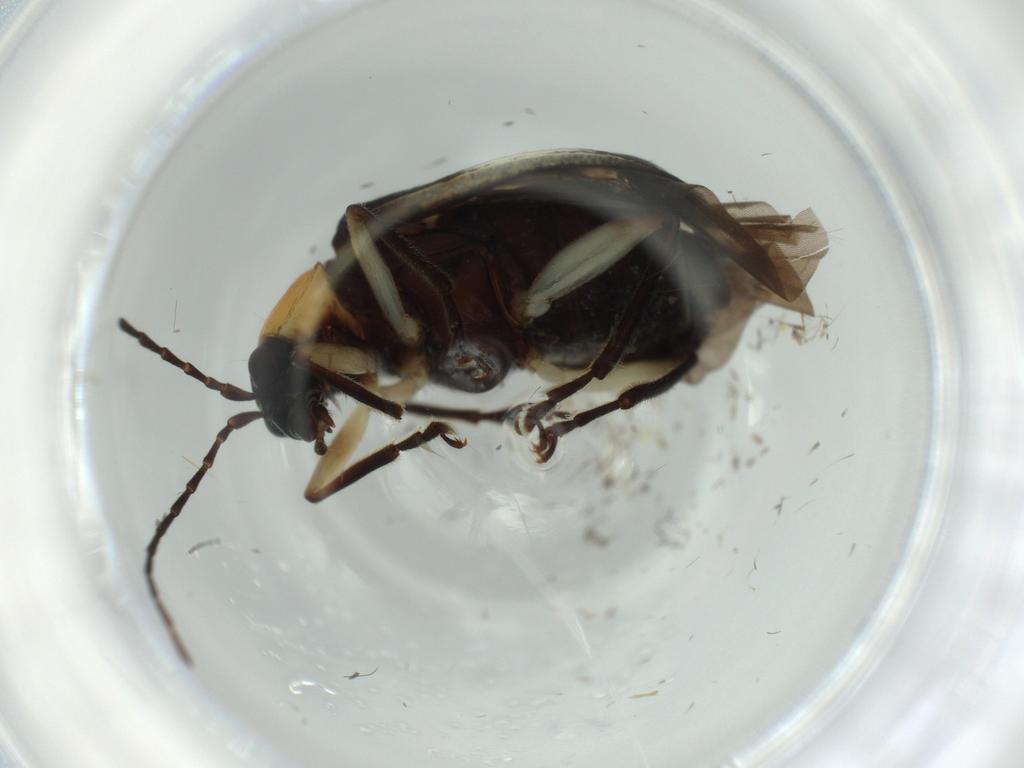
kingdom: Animalia
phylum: Arthropoda
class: Insecta
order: Coleoptera
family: Staphylinidae
